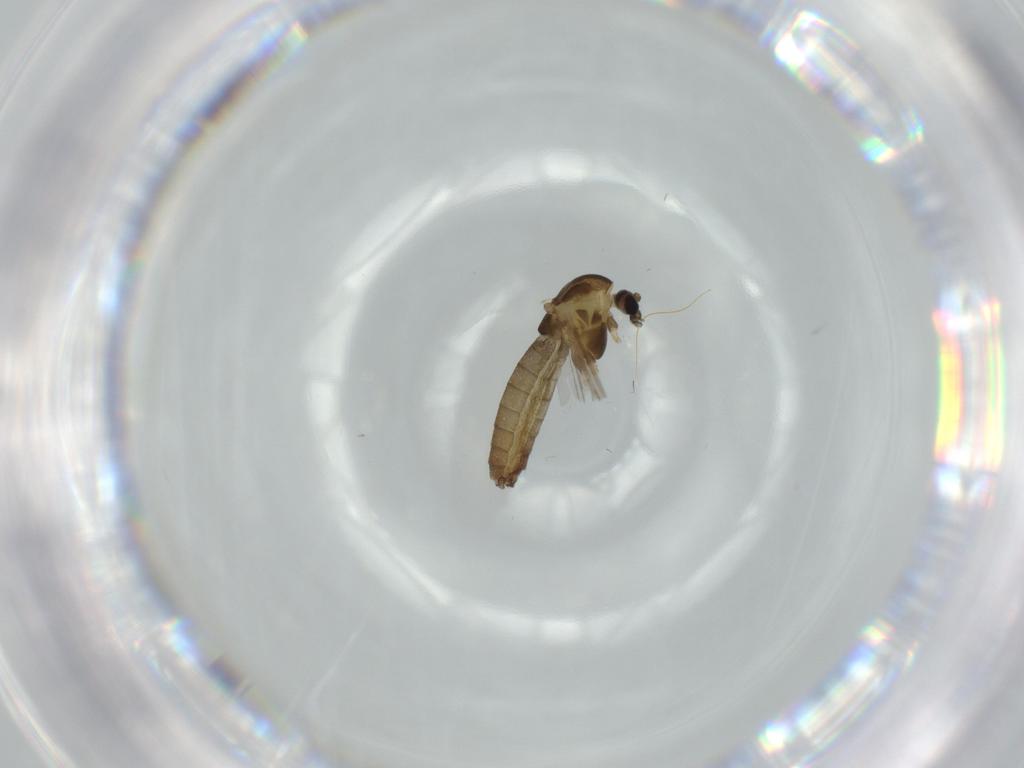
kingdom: Animalia
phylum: Arthropoda
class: Insecta
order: Diptera
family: Chironomidae
